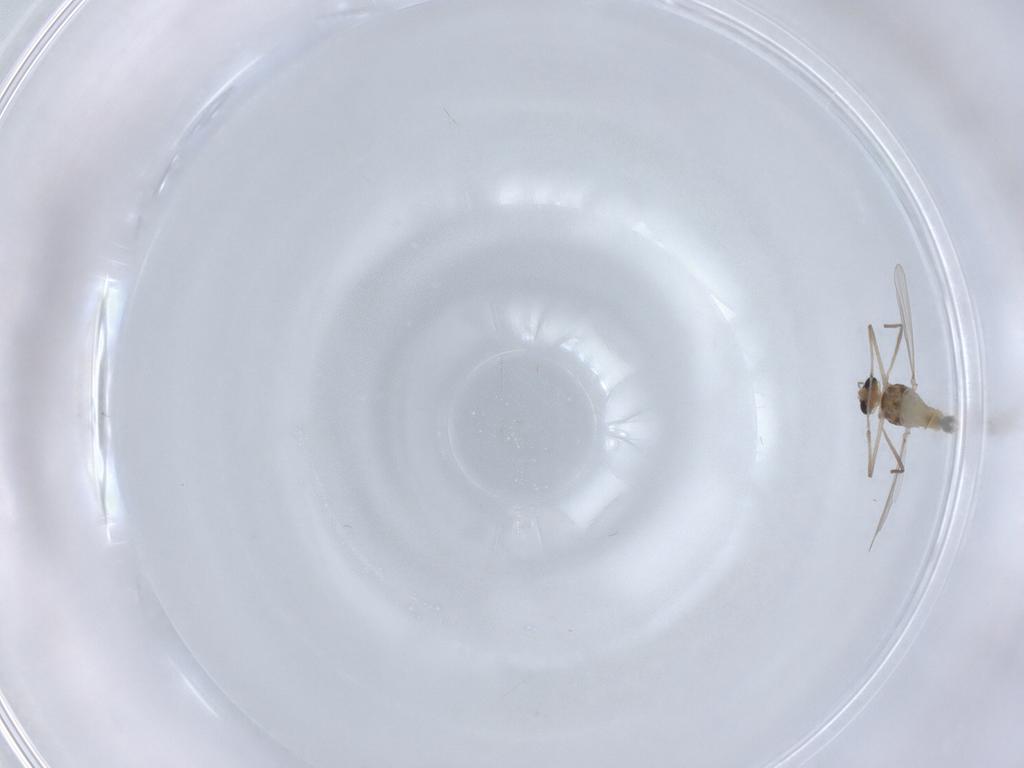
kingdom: Animalia
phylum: Arthropoda
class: Insecta
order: Diptera
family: Chironomidae
